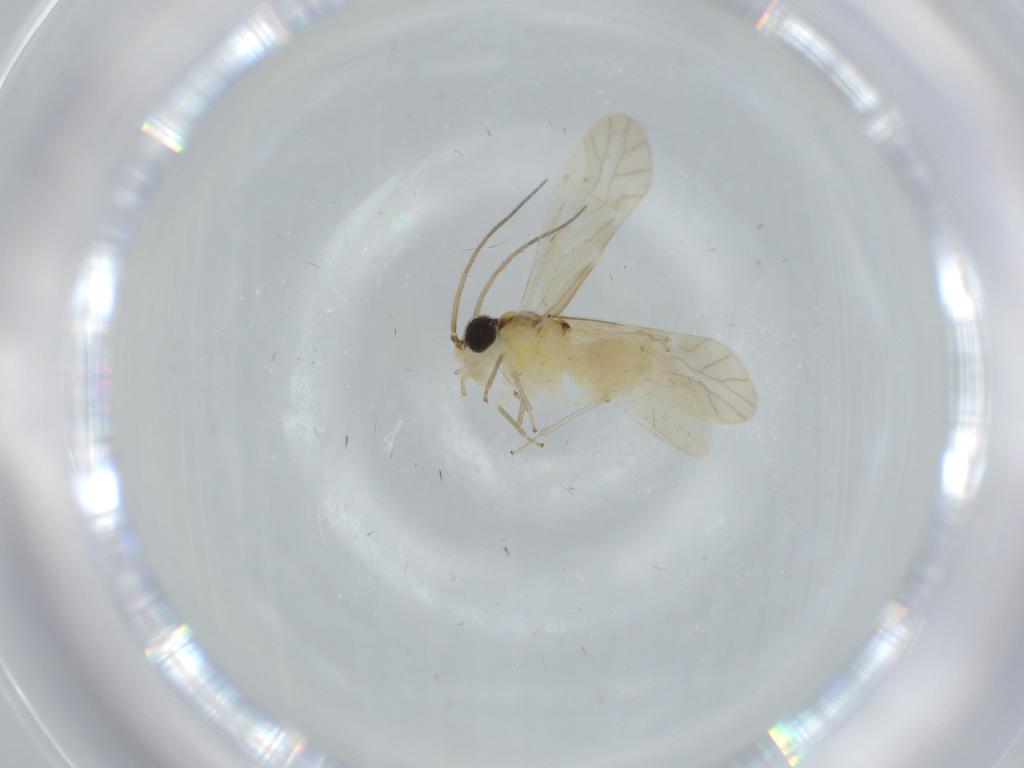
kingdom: Animalia
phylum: Arthropoda
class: Insecta
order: Psocodea
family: Caeciliusidae
